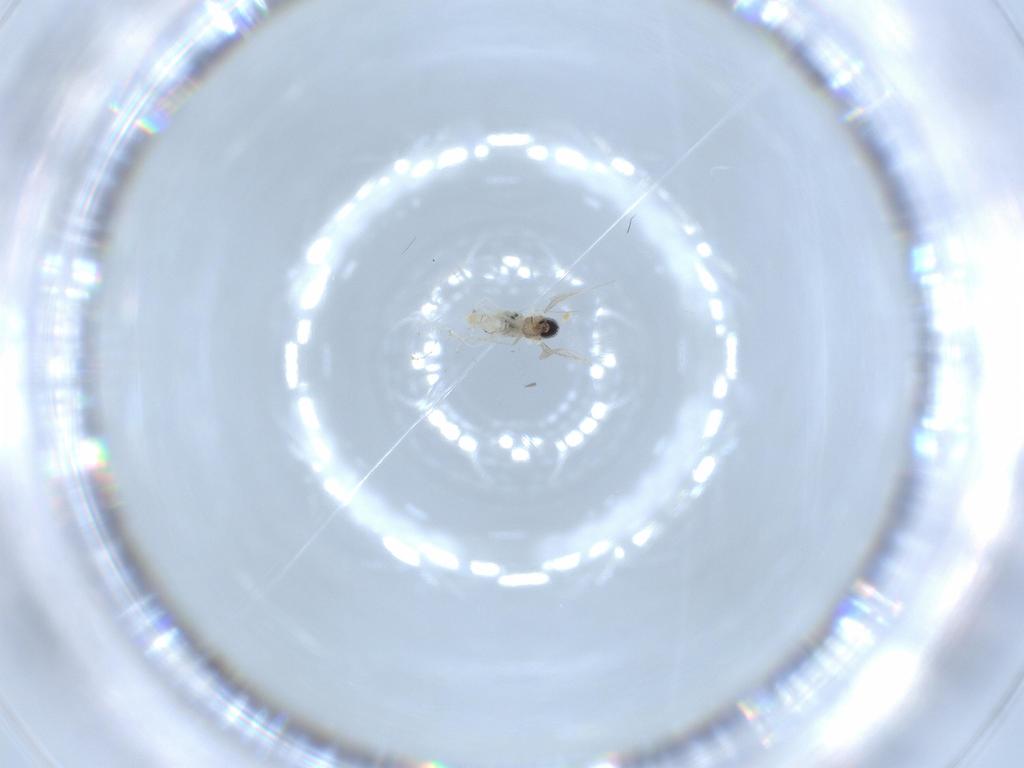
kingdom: Animalia
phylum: Arthropoda
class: Insecta
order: Diptera
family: Cecidomyiidae
